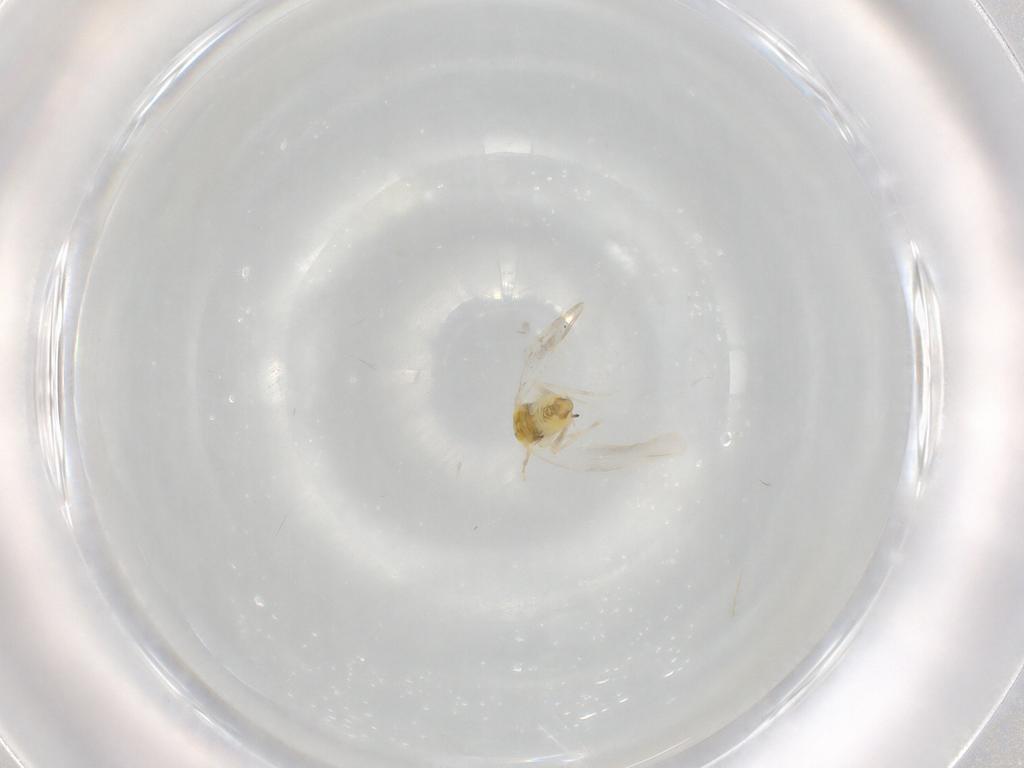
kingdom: Animalia
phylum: Arthropoda
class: Insecta
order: Hemiptera
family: Aleyrodidae
